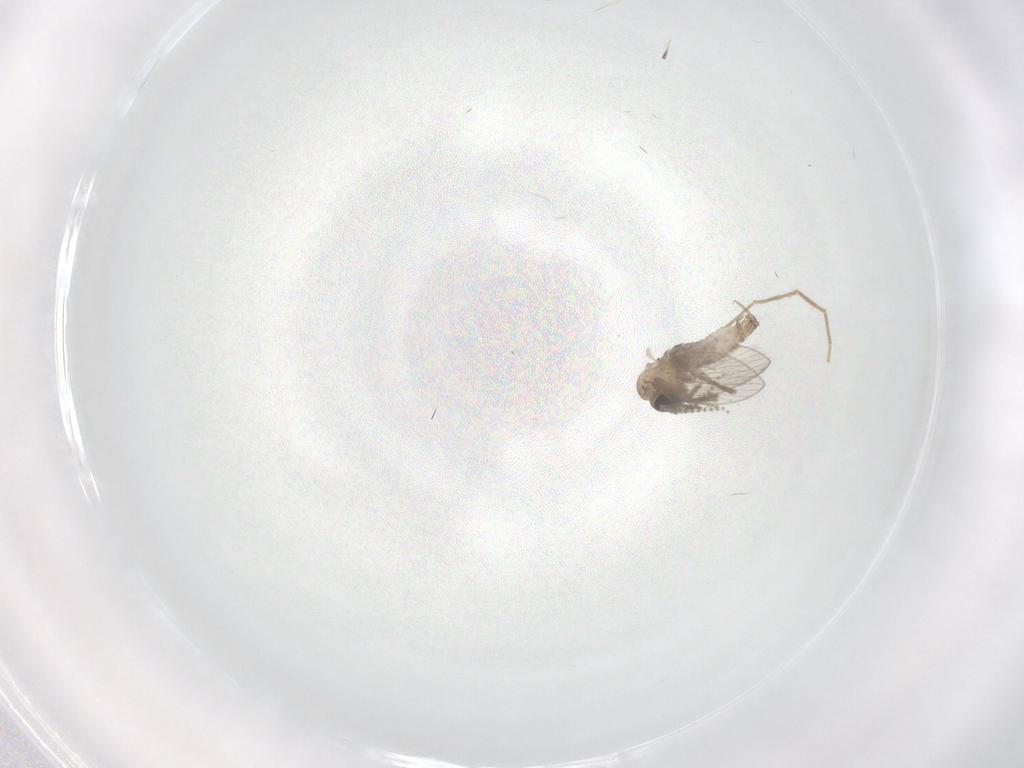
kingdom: Animalia
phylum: Arthropoda
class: Insecta
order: Diptera
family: Psychodidae
